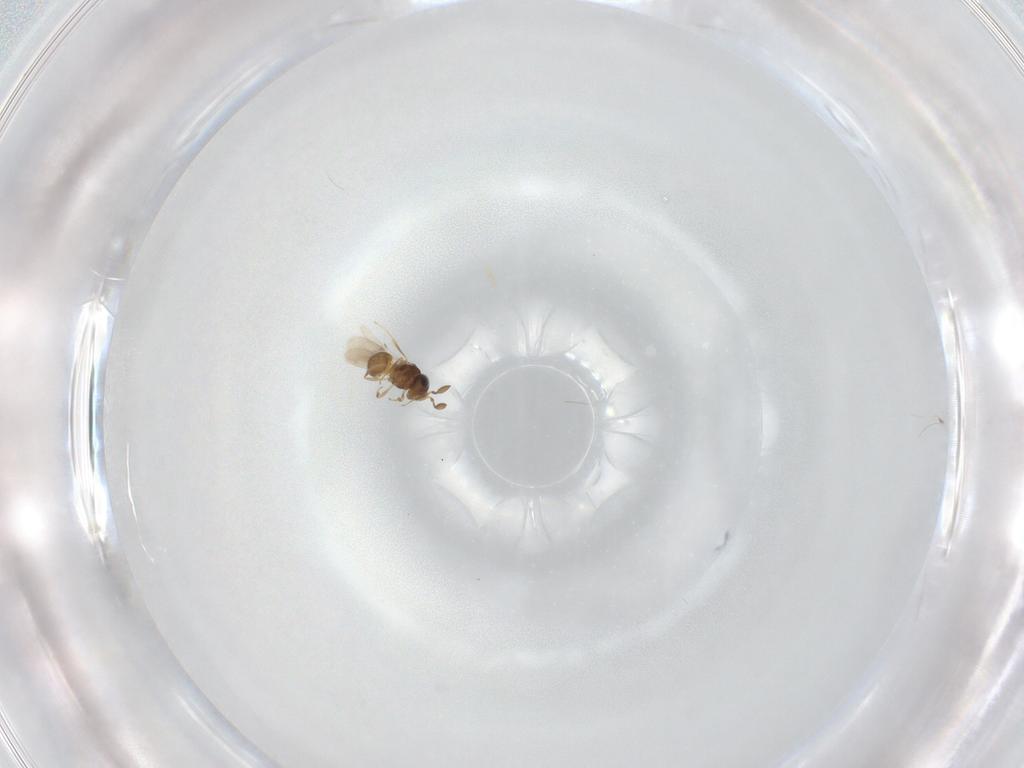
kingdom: Animalia
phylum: Arthropoda
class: Insecta
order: Hymenoptera
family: Scelionidae
